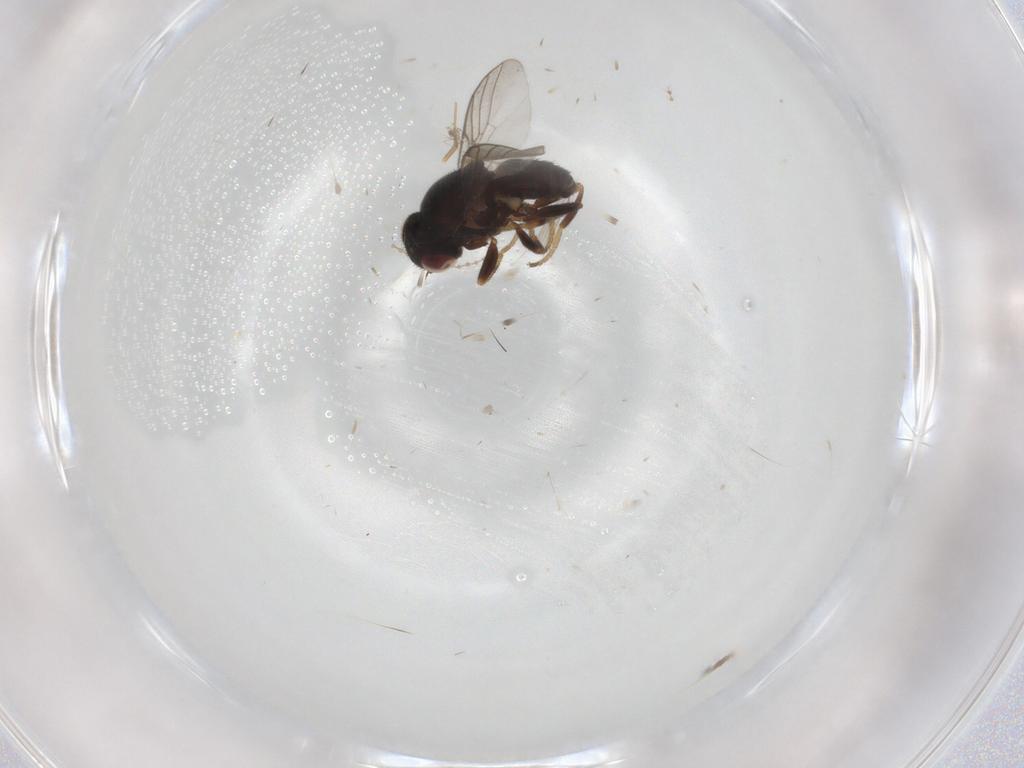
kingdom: Animalia
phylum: Arthropoda
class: Insecta
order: Diptera
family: Chloropidae
